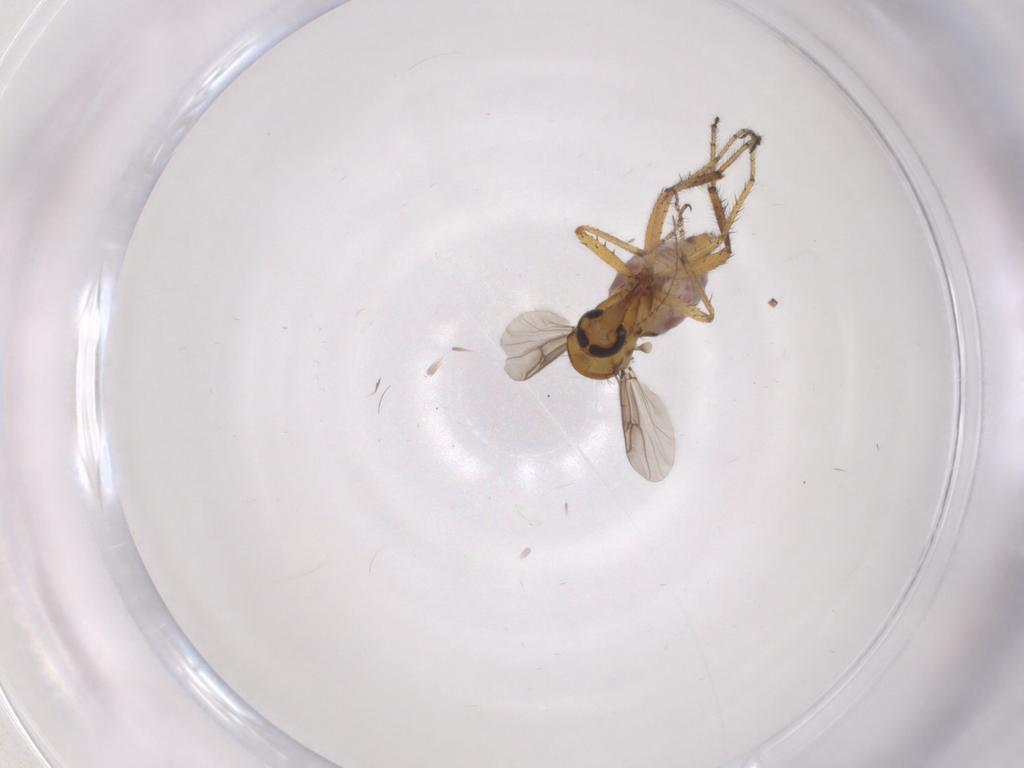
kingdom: Animalia
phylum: Arthropoda
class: Insecta
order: Diptera
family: Ceratopogonidae
